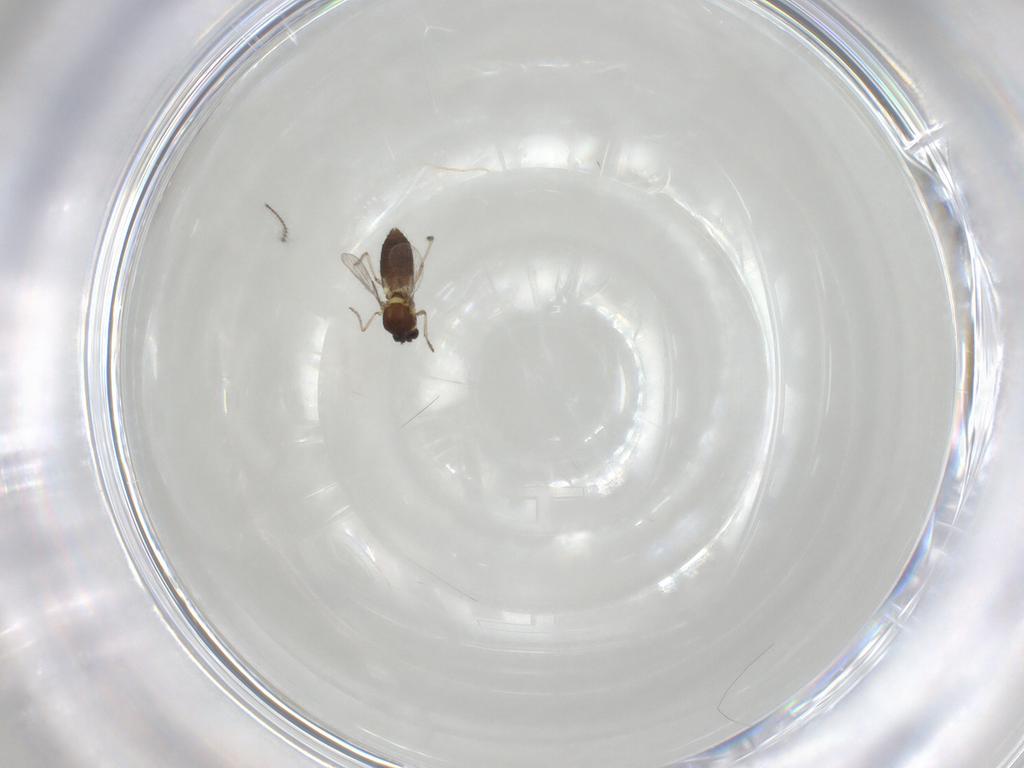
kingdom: Animalia
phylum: Arthropoda
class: Insecta
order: Diptera
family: Ceratopogonidae
